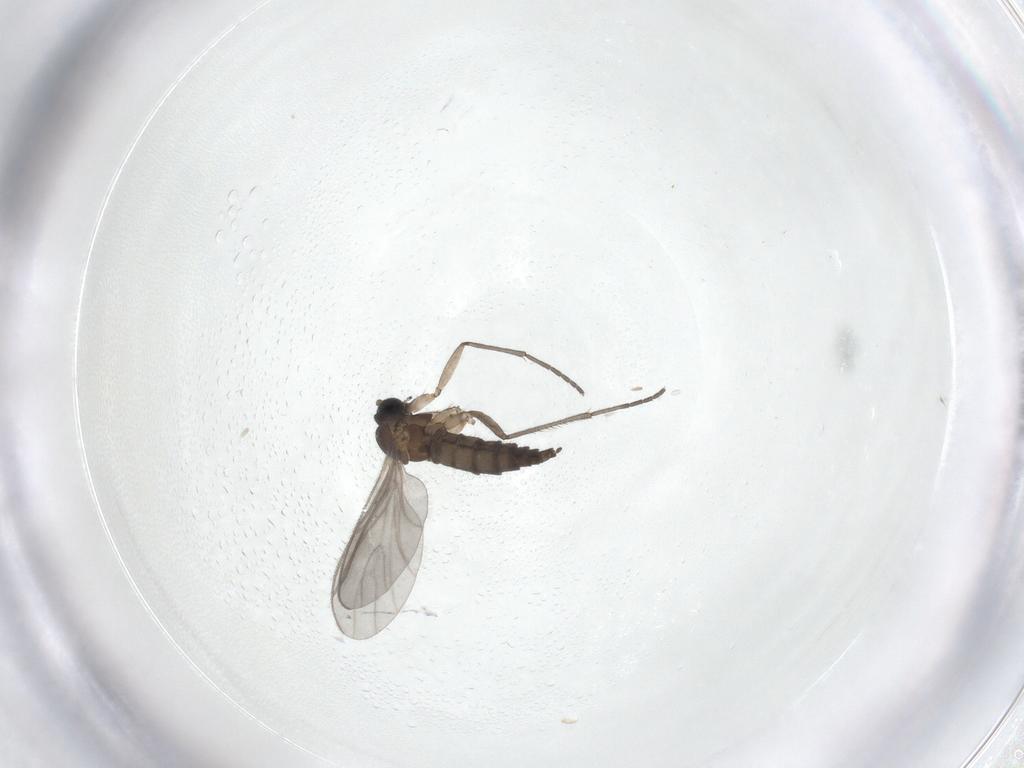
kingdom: Animalia
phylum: Arthropoda
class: Insecta
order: Diptera
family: Sciaridae
